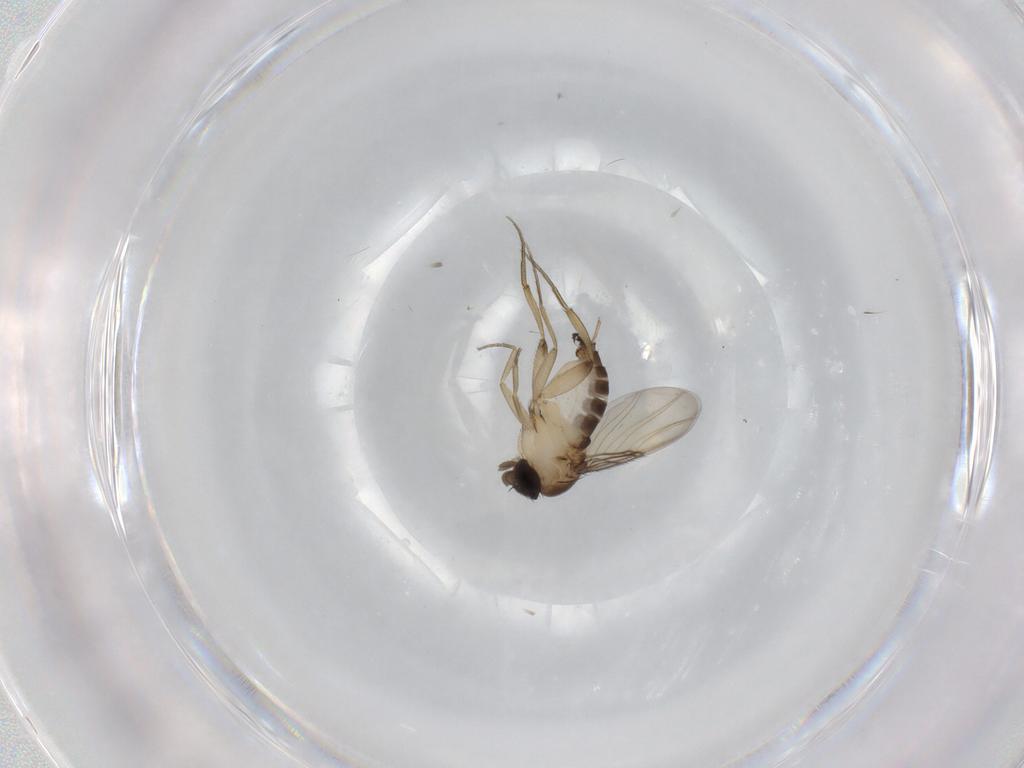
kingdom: Animalia
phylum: Arthropoda
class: Insecta
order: Diptera
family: Phoridae
